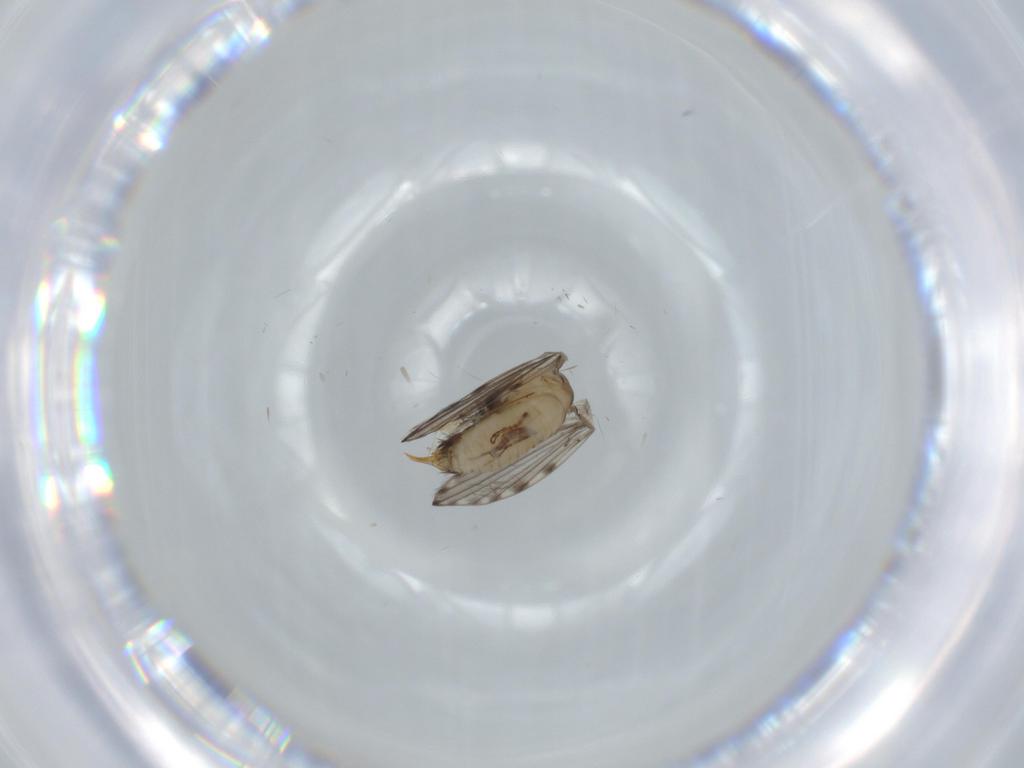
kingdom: Animalia
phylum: Arthropoda
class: Insecta
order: Diptera
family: Psychodidae
